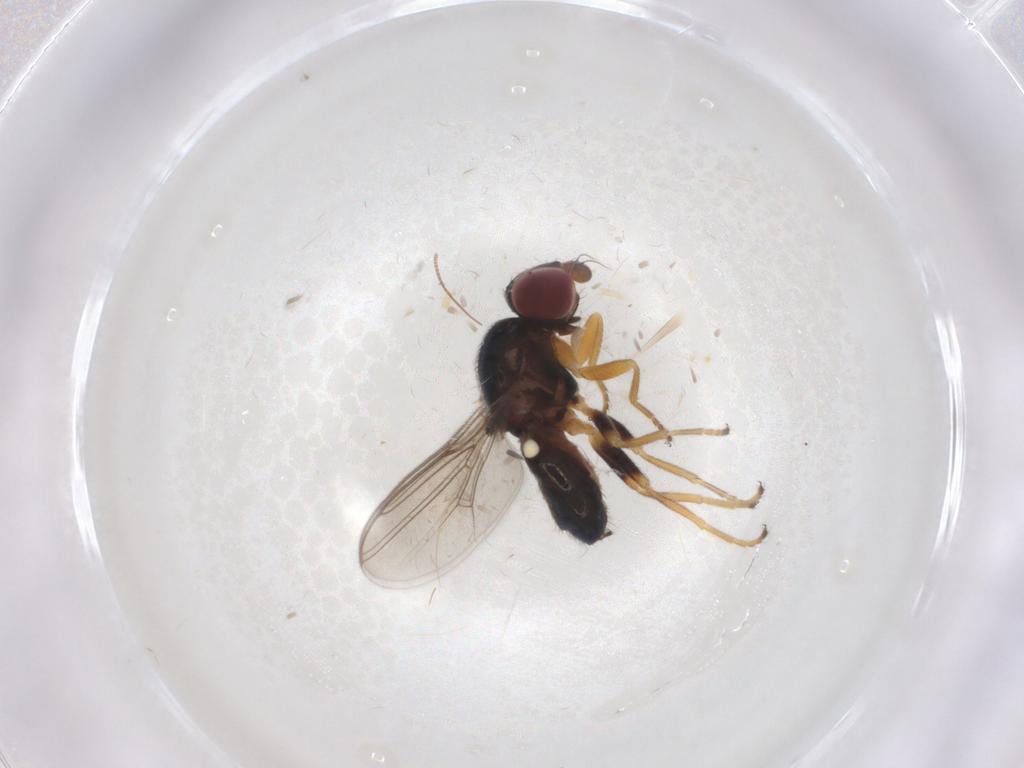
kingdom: Animalia
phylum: Arthropoda
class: Insecta
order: Diptera
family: Chloropidae
